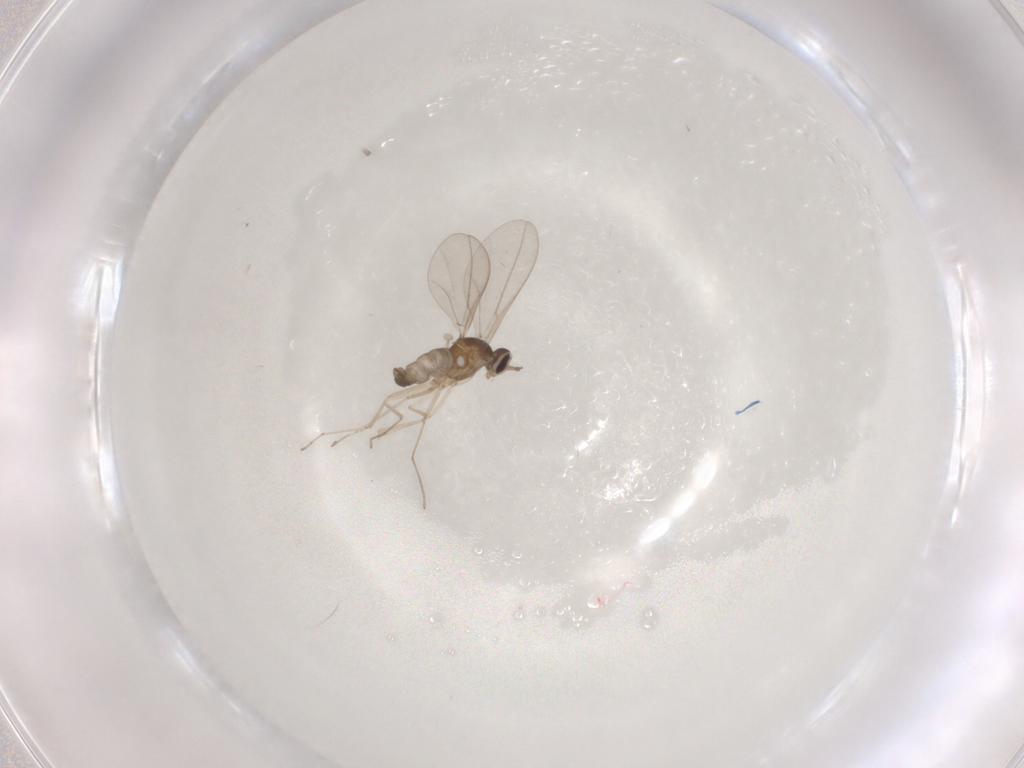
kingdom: Animalia
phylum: Arthropoda
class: Insecta
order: Diptera
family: Cecidomyiidae
